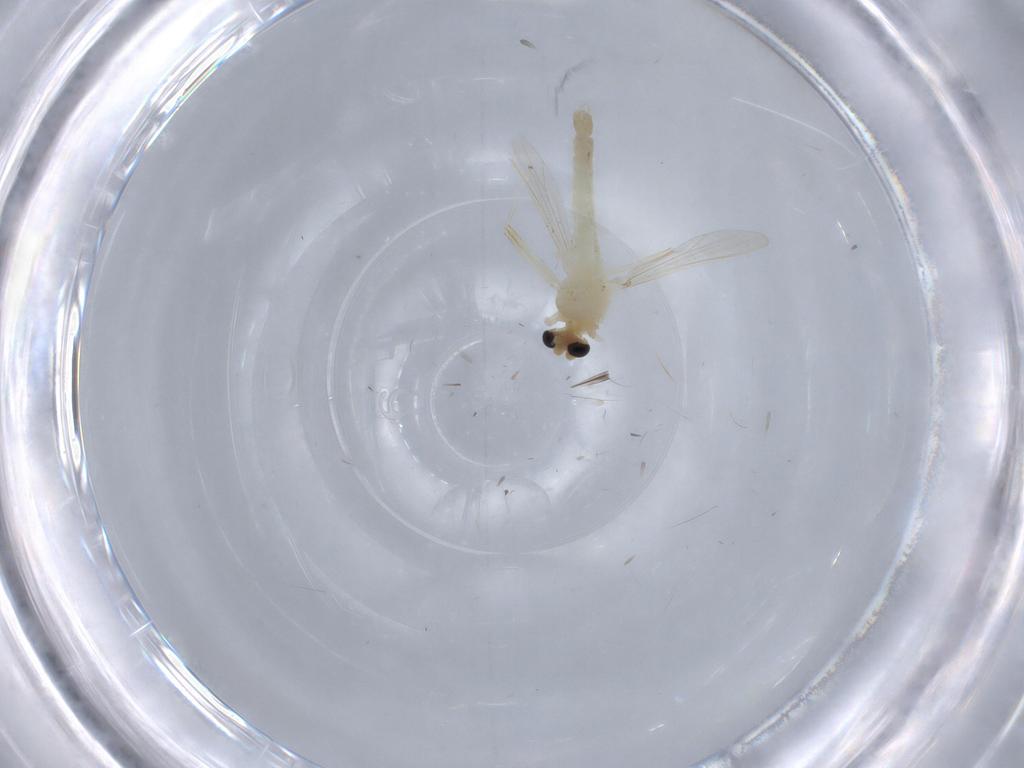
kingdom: Animalia
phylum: Arthropoda
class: Insecta
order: Diptera
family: Chironomidae
